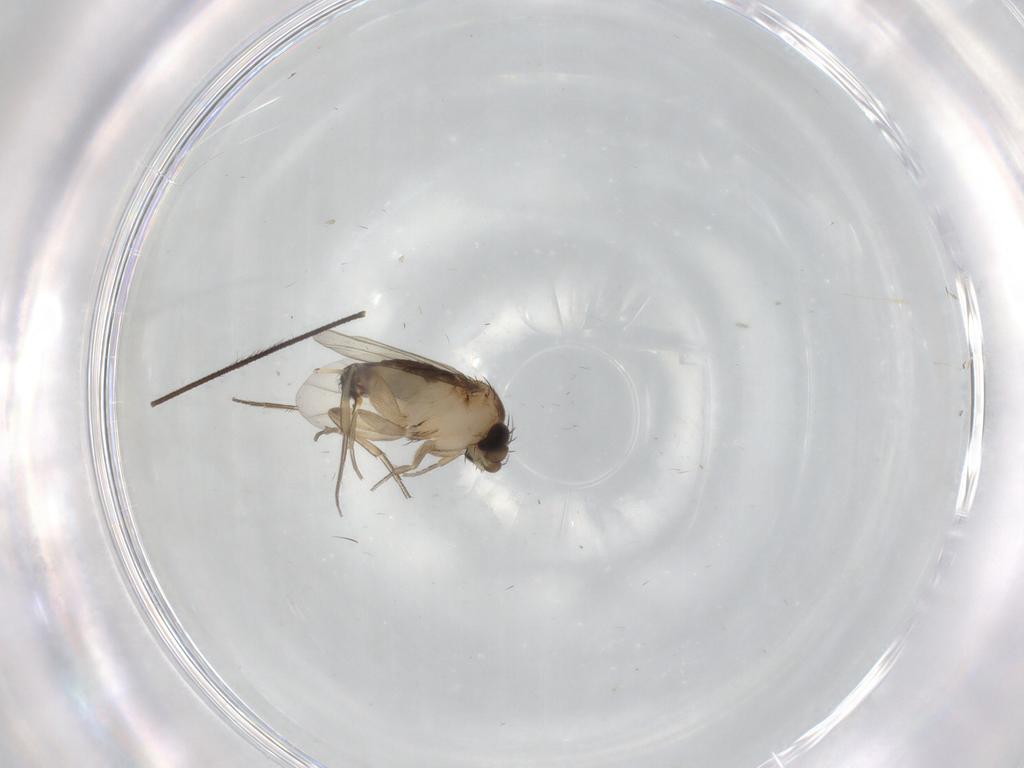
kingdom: Animalia
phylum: Arthropoda
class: Insecta
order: Diptera
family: Phoridae
